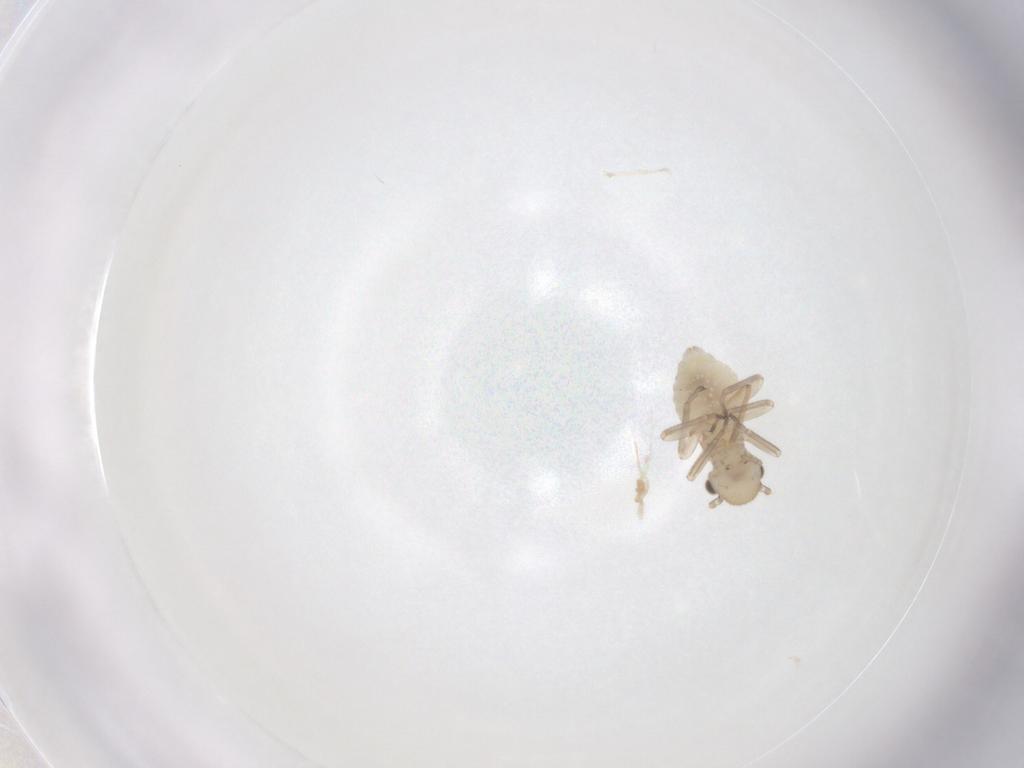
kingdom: Animalia
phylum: Arthropoda
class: Insecta
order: Psocodea
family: Caeciliusidae
